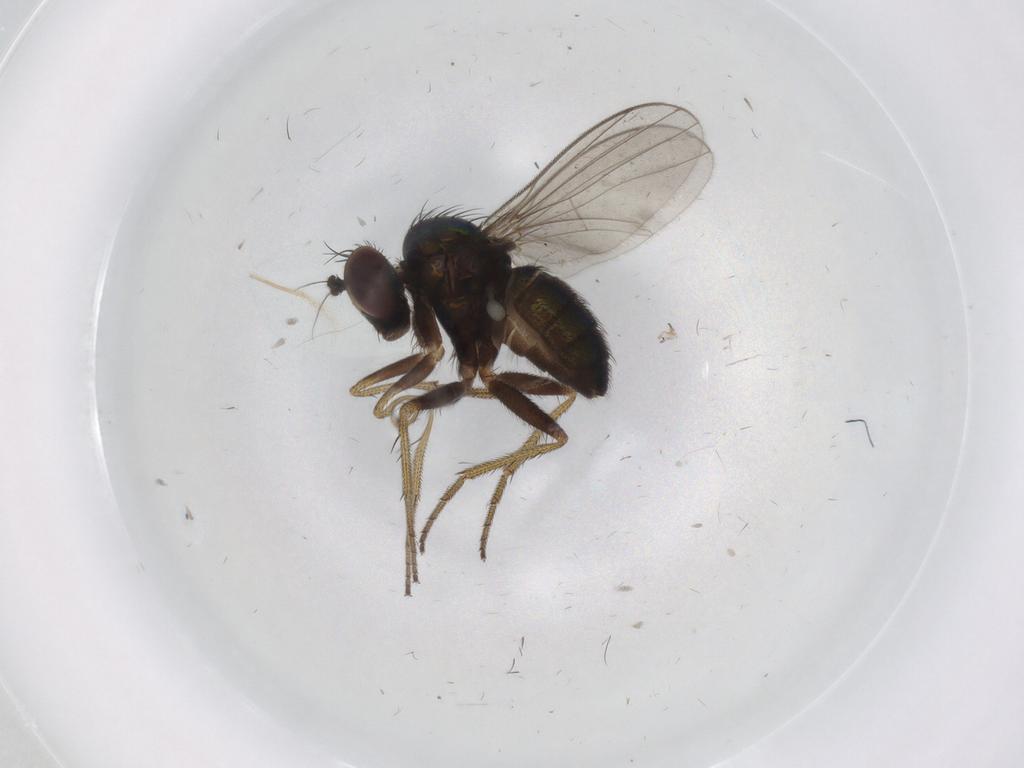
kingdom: Animalia
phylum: Arthropoda
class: Insecta
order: Diptera
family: Dolichopodidae
